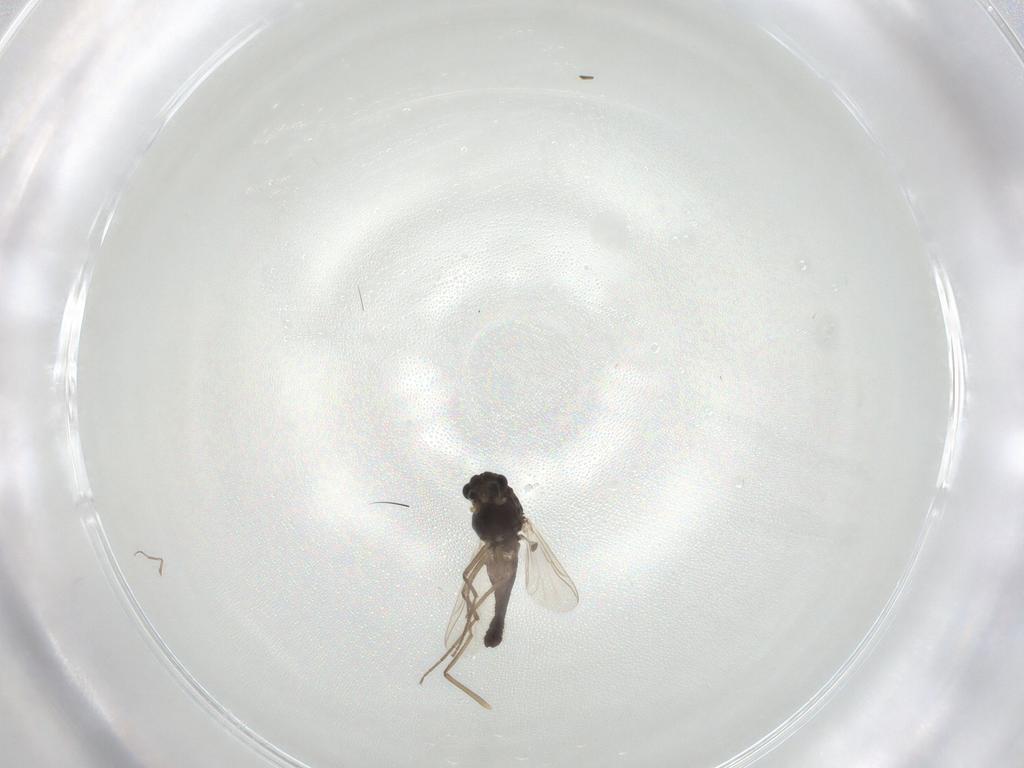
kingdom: Animalia
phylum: Arthropoda
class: Insecta
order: Diptera
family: Chironomidae
